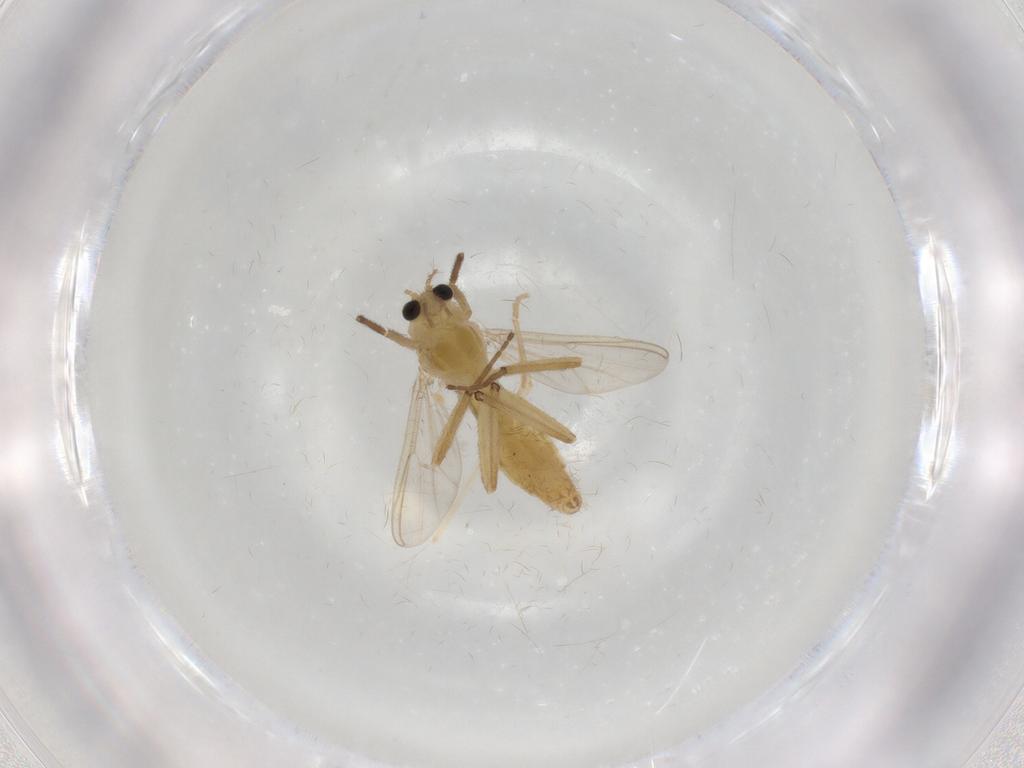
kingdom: Animalia
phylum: Arthropoda
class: Insecta
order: Diptera
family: Chironomidae
